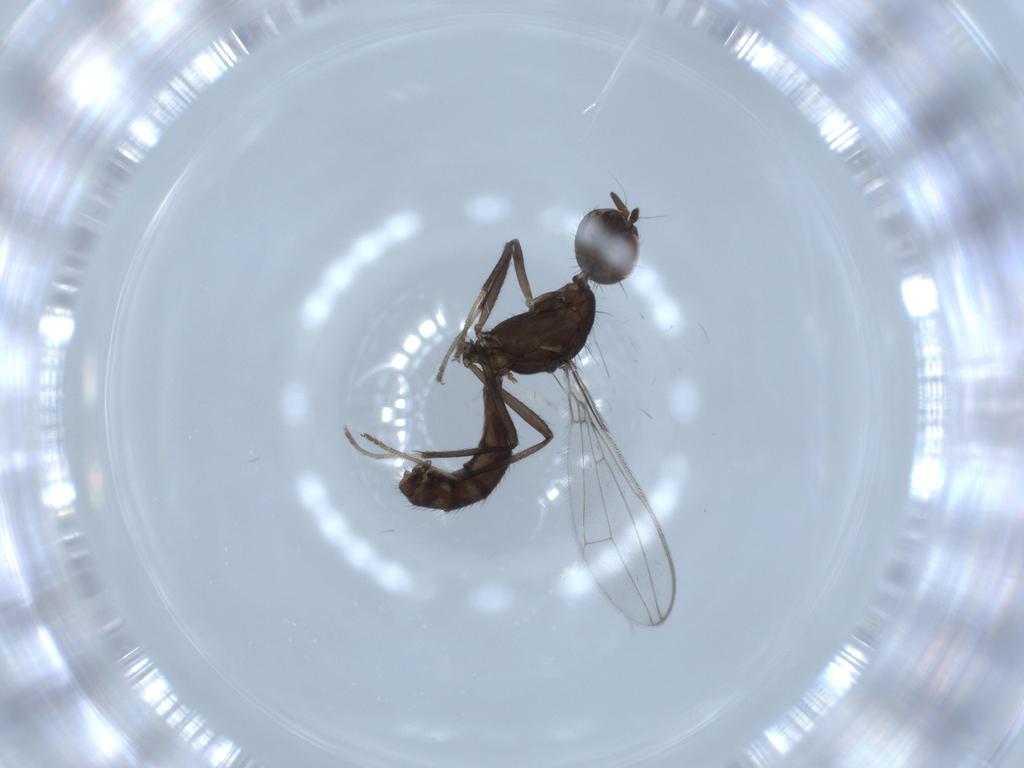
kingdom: Animalia
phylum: Arthropoda
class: Insecta
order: Diptera
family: Richardiidae
